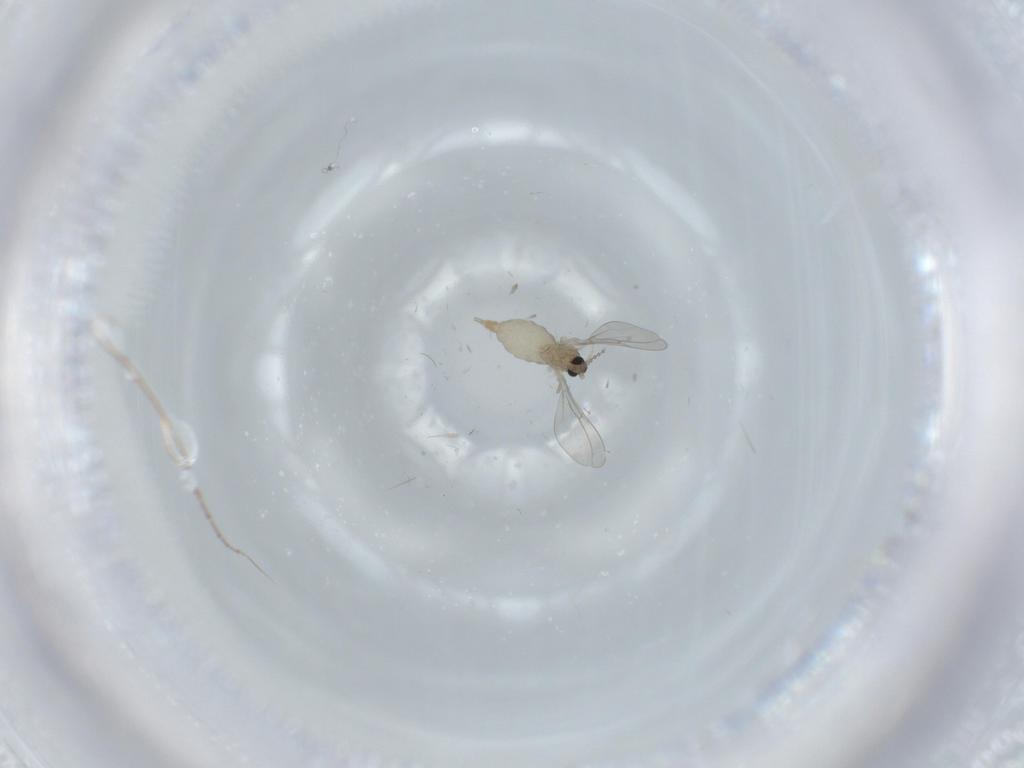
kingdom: Animalia
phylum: Arthropoda
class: Insecta
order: Diptera
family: Cecidomyiidae
